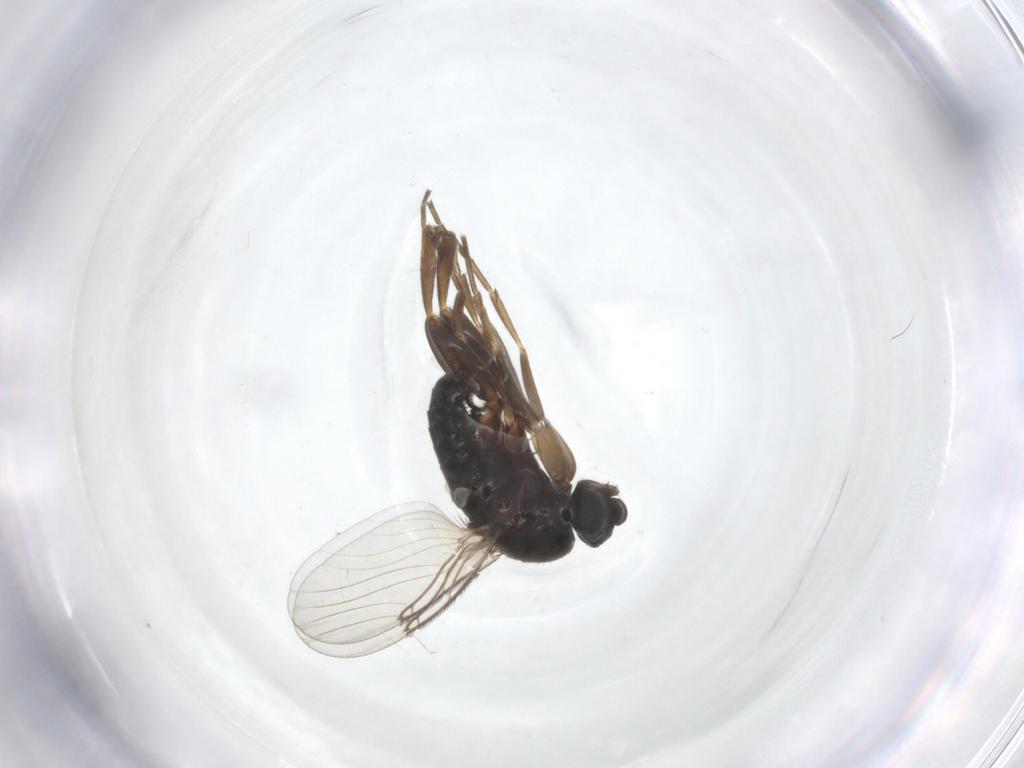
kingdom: Animalia
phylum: Arthropoda
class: Insecta
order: Diptera
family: Phoridae
